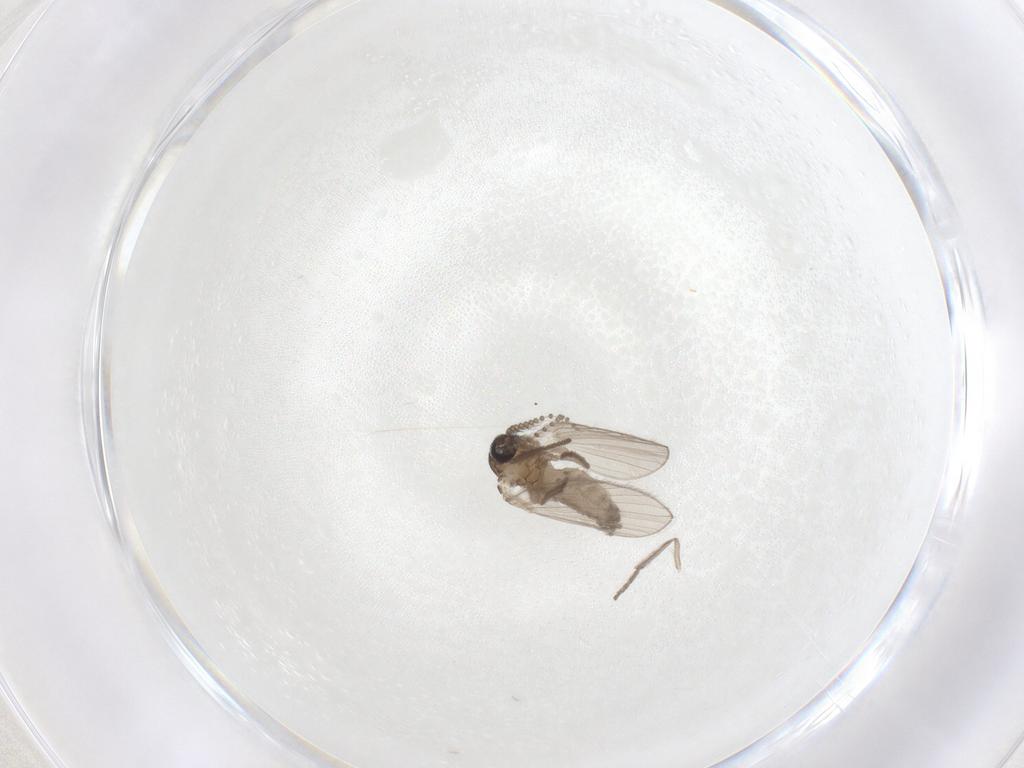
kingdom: Animalia
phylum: Arthropoda
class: Insecta
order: Diptera
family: Psychodidae
